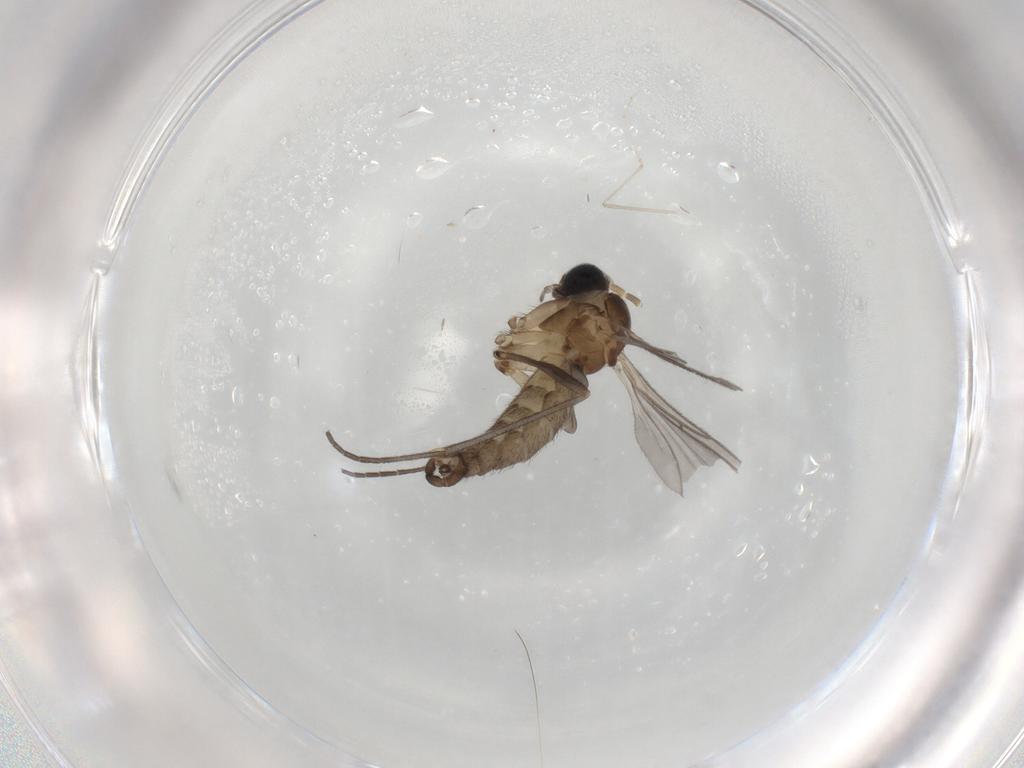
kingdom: Animalia
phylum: Arthropoda
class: Insecta
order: Diptera
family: Sciaridae
